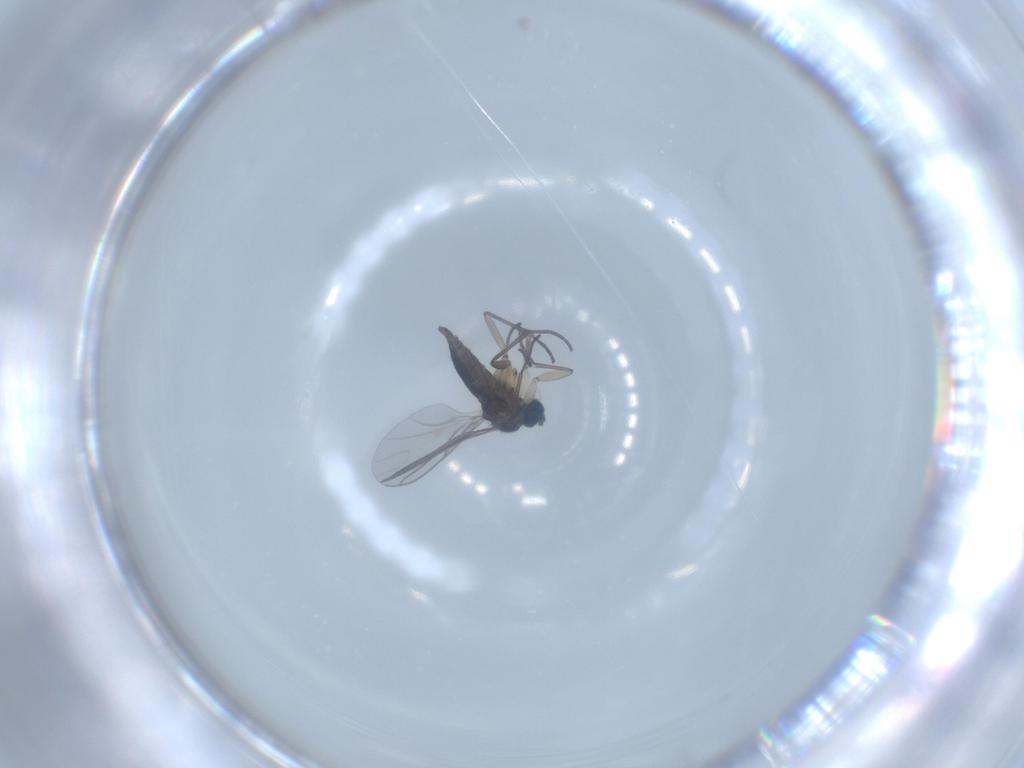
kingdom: Animalia
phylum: Arthropoda
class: Insecta
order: Diptera
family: Sciaridae
